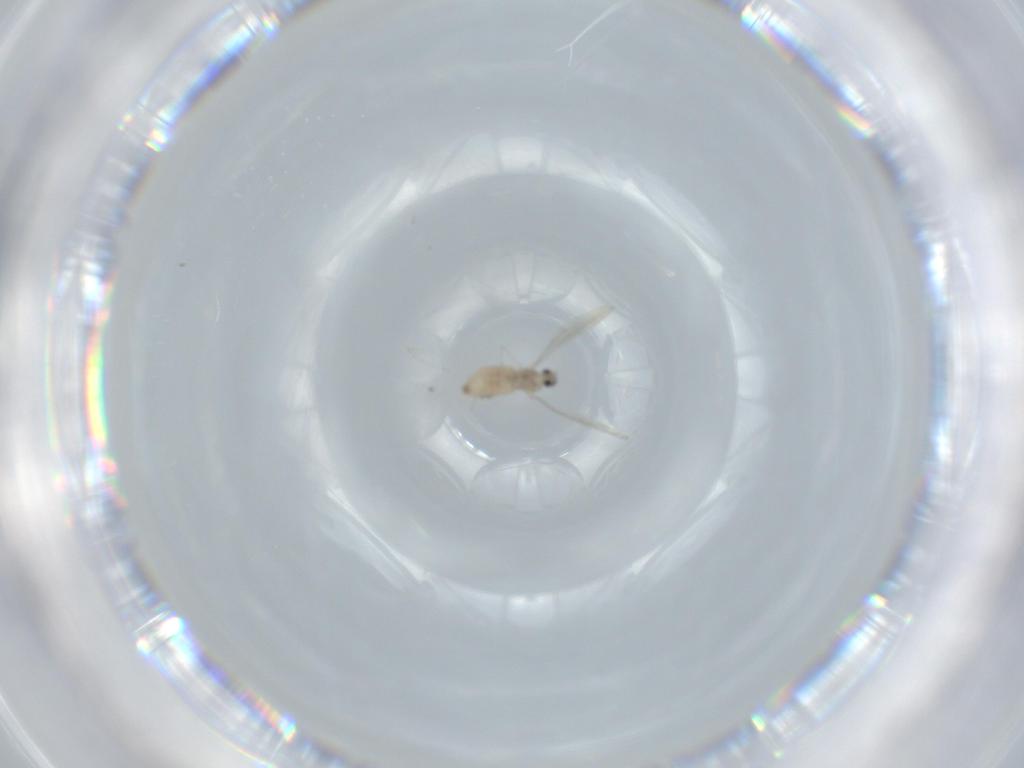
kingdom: Animalia
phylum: Arthropoda
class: Insecta
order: Diptera
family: Cecidomyiidae
